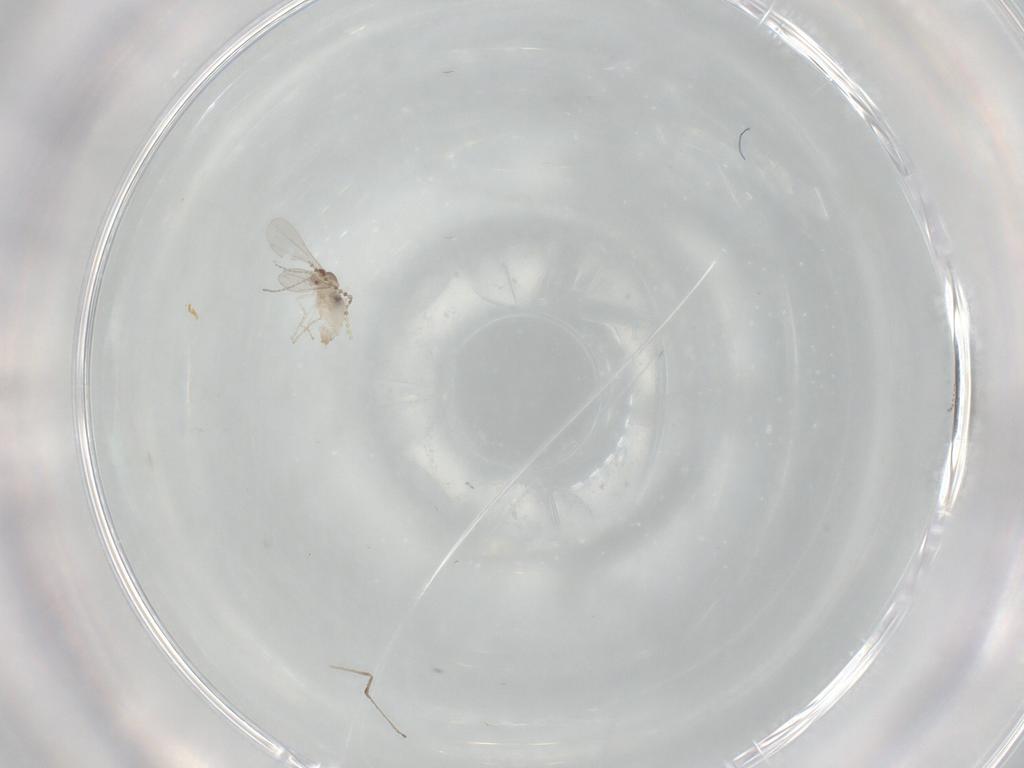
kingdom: Animalia
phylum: Arthropoda
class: Insecta
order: Diptera
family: Cecidomyiidae
